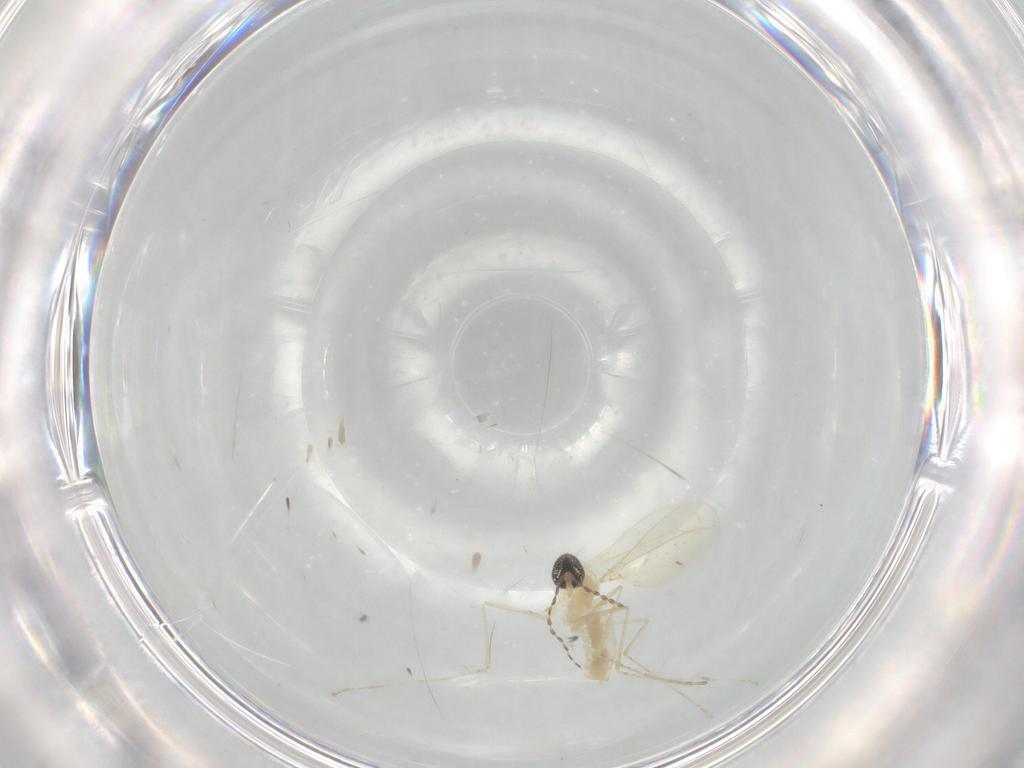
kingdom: Animalia
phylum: Arthropoda
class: Insecta
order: Diptera
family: Cecidomyiidae
